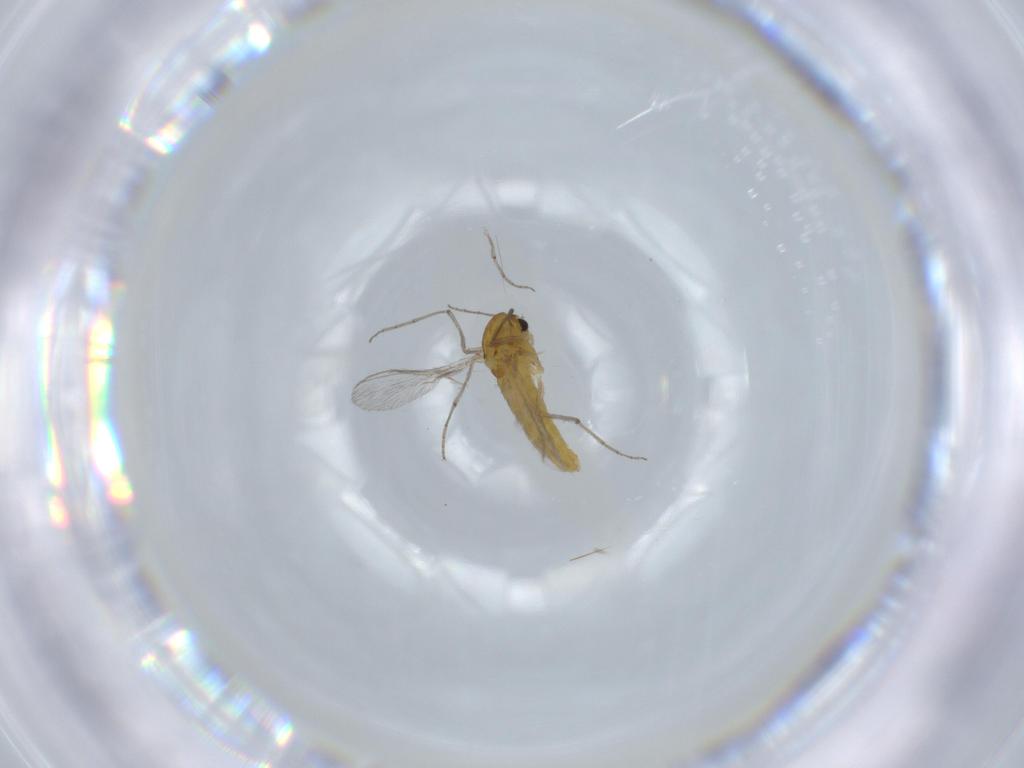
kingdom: Animalia
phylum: Arthropoda
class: Insecta
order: Diptera
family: Chironomidae
